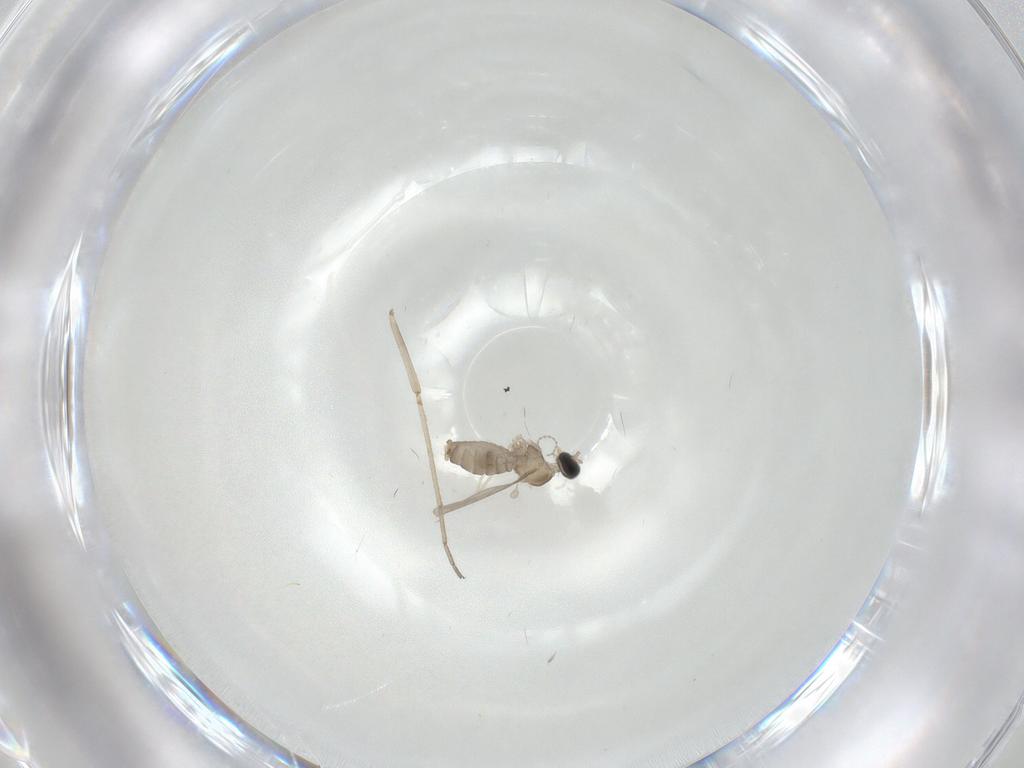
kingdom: Animalia
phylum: Arthropoda
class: Insecta
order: Diptera
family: Cecidomyiidae
